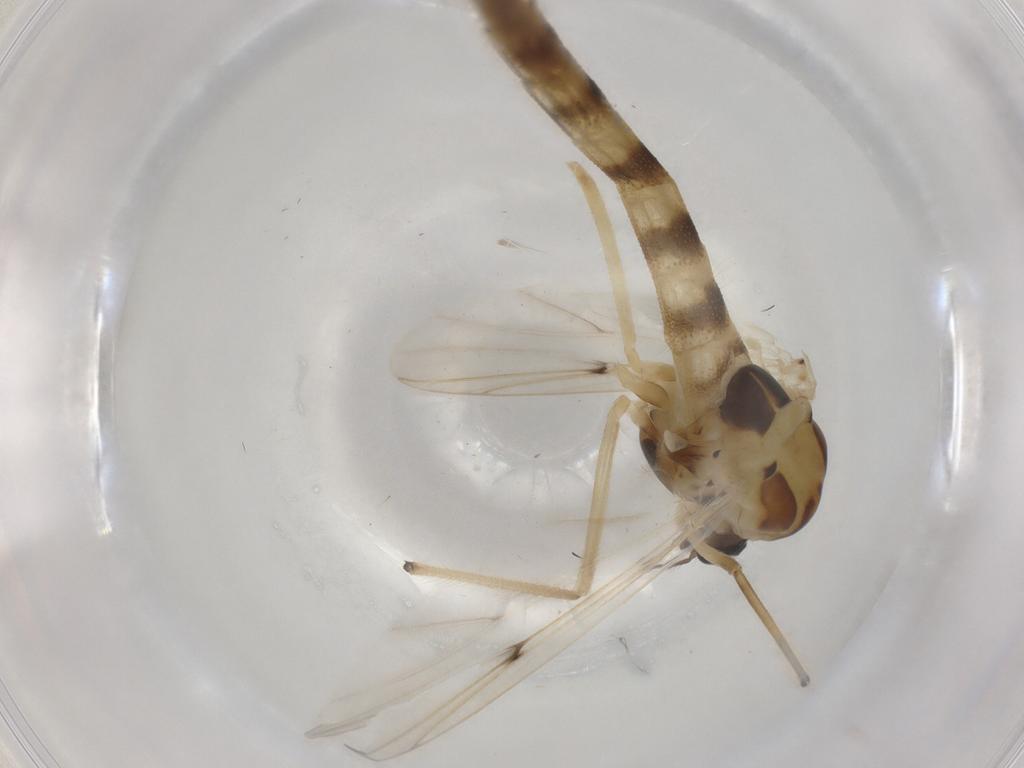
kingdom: Animalia
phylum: Arthropoda
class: Insecta
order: Diptera
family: Chironomidae
